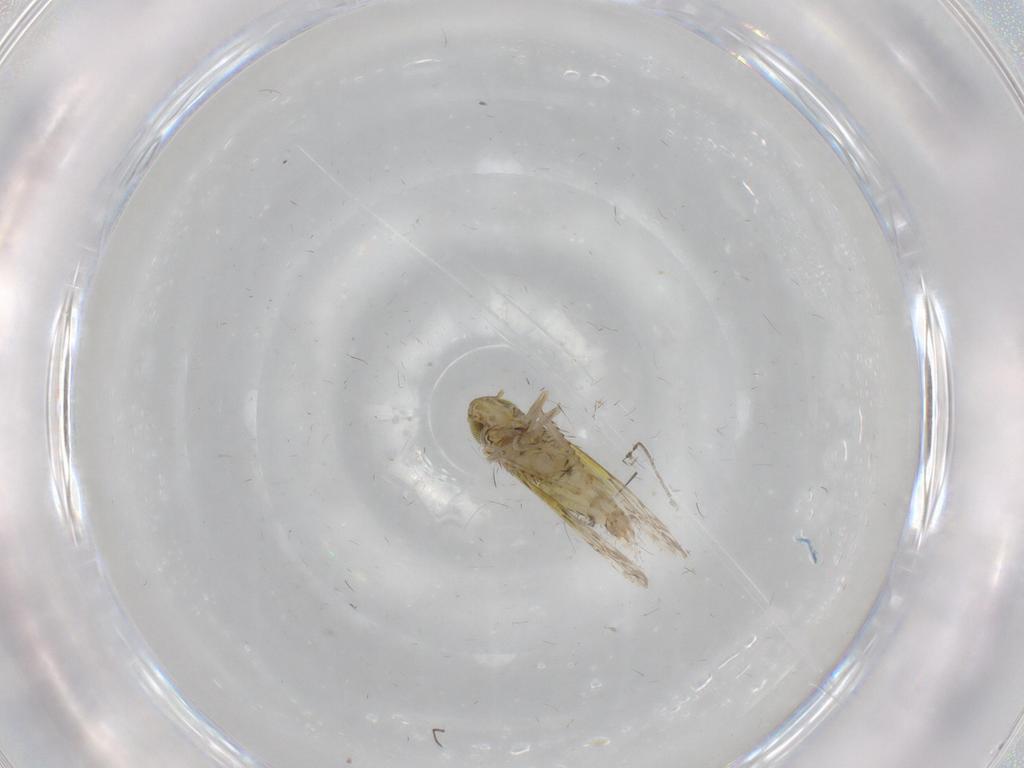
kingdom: Animalia
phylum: Arthropoda
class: Insecta
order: Hemiptera
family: Cicadellidae
